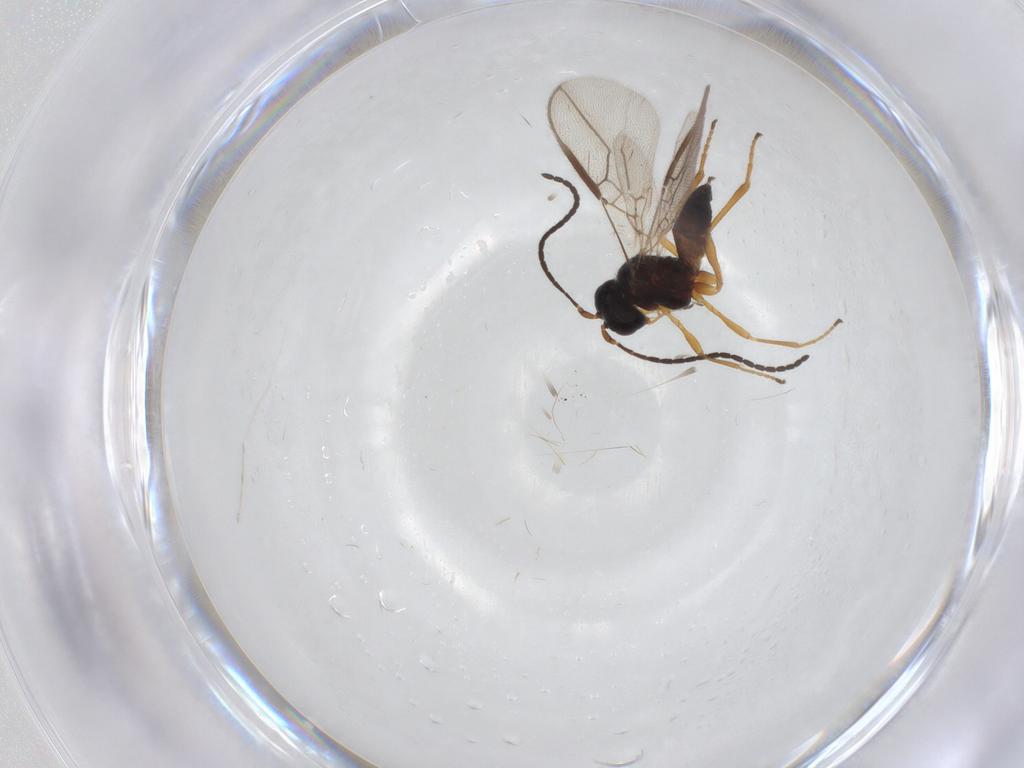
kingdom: Animalia
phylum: Arthropoda
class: Insecta
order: Hymenoptera
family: Braconidae
